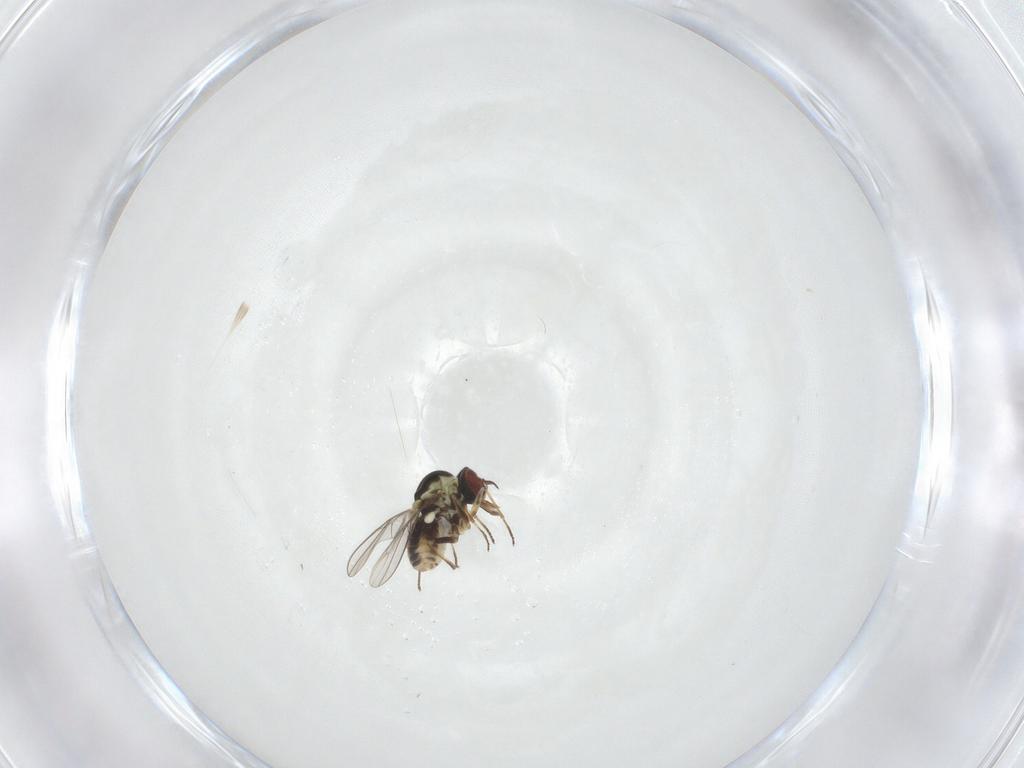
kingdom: Animalia
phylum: Arthropoda
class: Insecta
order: Diptera
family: Mythicomyiidae
